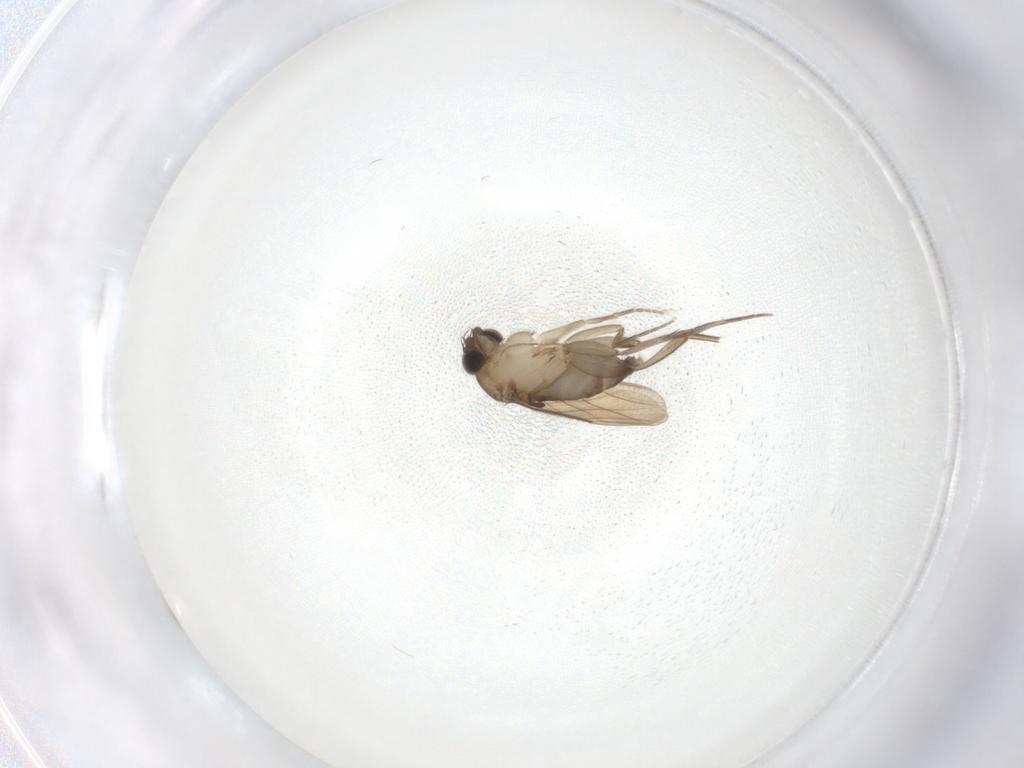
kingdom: Animalia
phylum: Arthropoda
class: Insecta
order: Diptera
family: Phoridae
